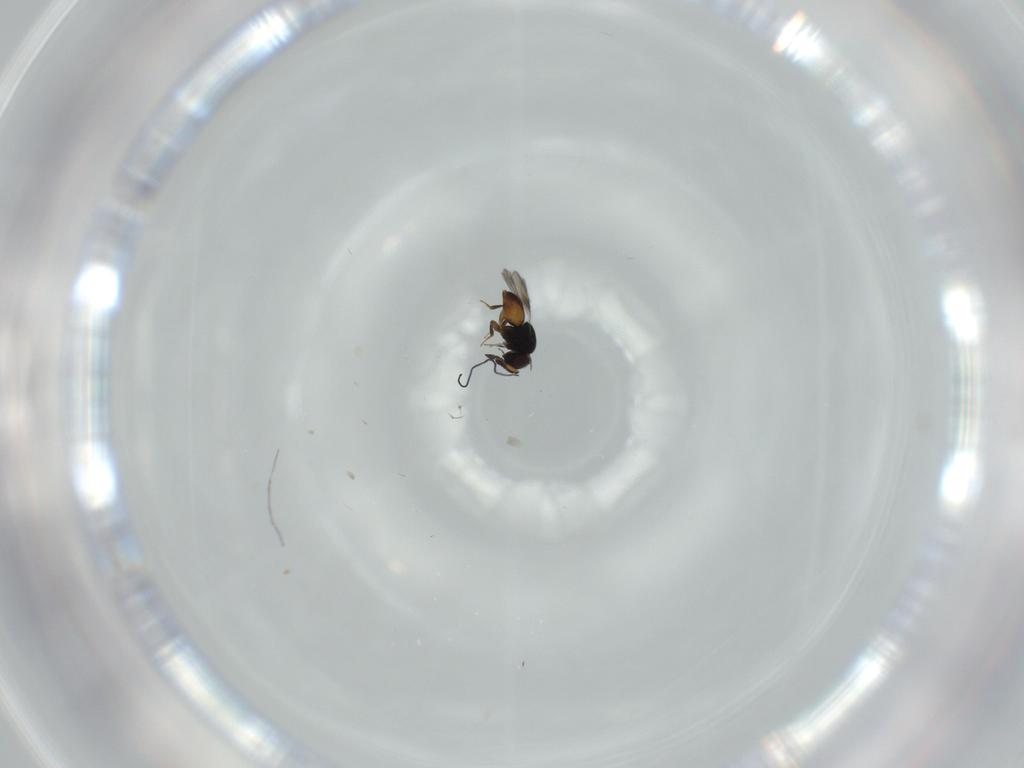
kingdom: Animalia
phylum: Arthropoda
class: Insecta
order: Hymenoptera
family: Ceraphronidae
